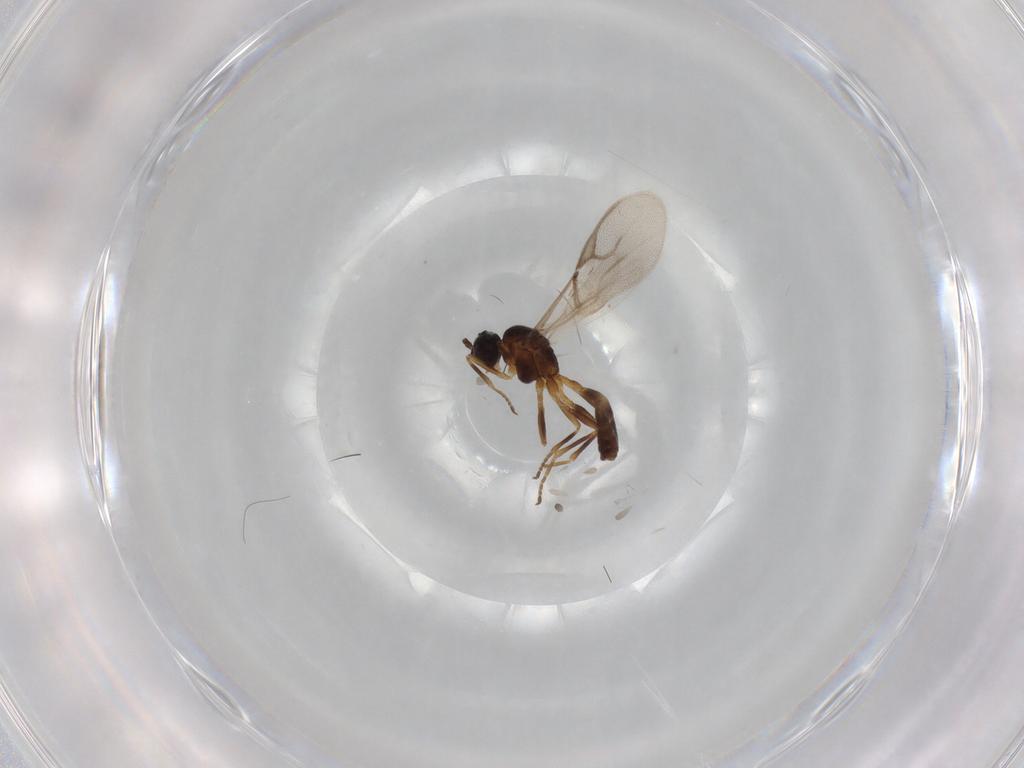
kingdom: Animalia
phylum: Arthropoda
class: Insecta
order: Hymenoptera
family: Braconidae
